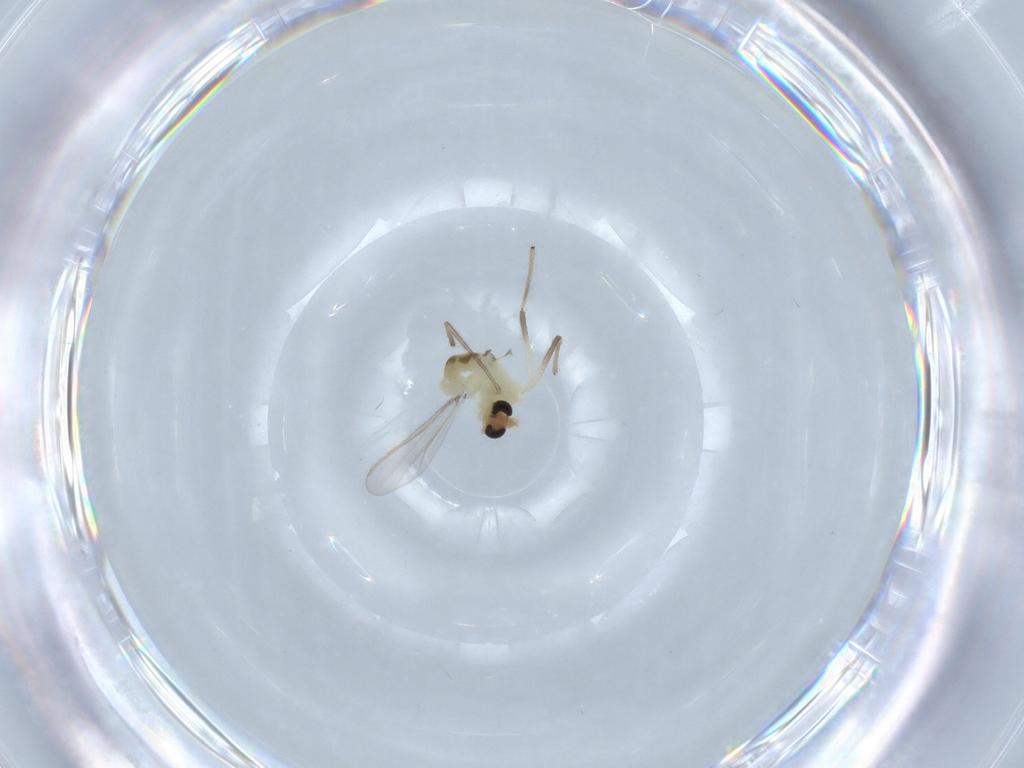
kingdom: Animalia
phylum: Arthropoda
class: Insecta
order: Diptera
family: Chironomidae
